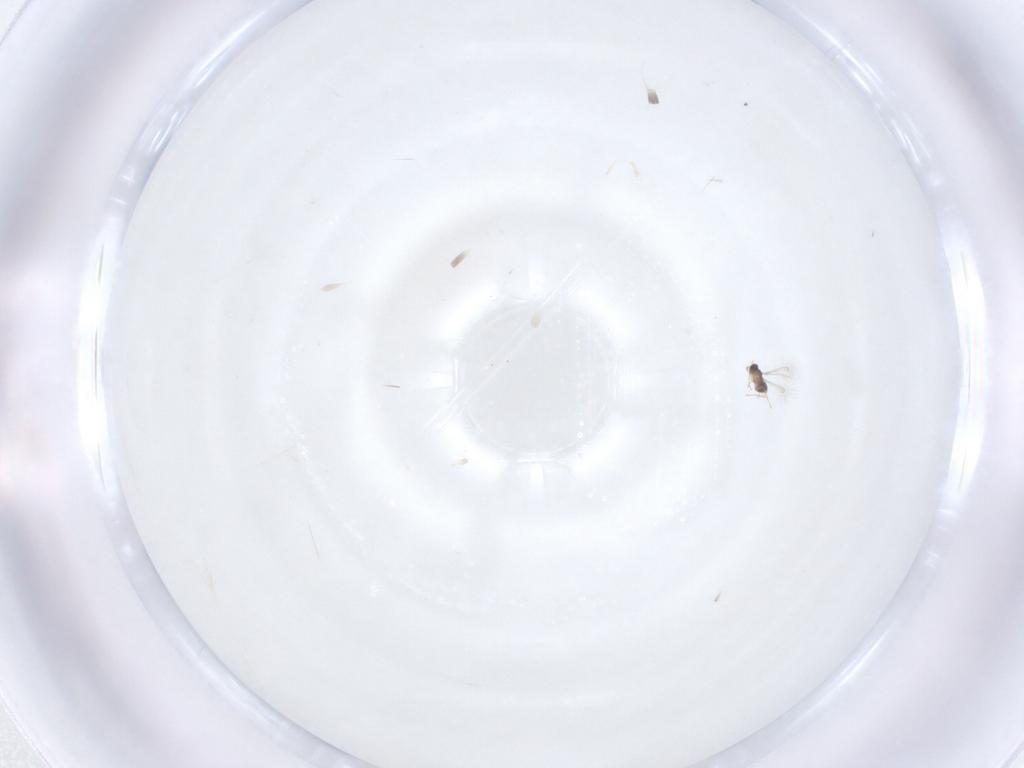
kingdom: Animalia
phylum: Arthropoda
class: Insecta
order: Hymenoptera
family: Mymaridae
